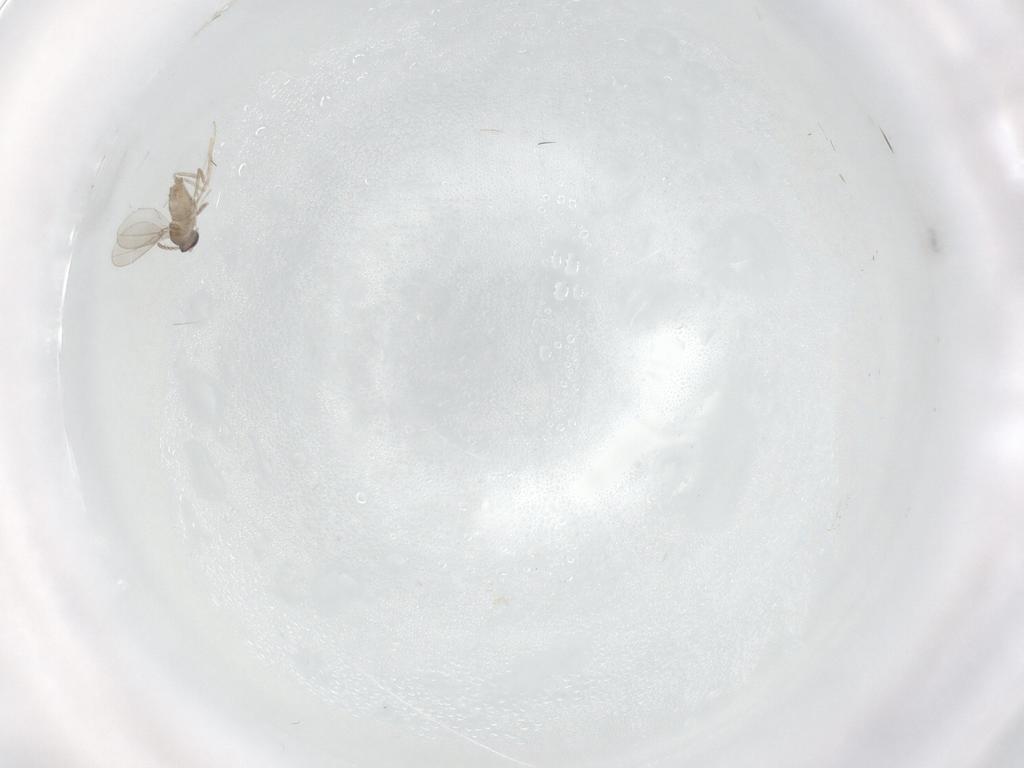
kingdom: Animalia
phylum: Arthropoda
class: Insecta
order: Diptera
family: Cecidomyiidae
